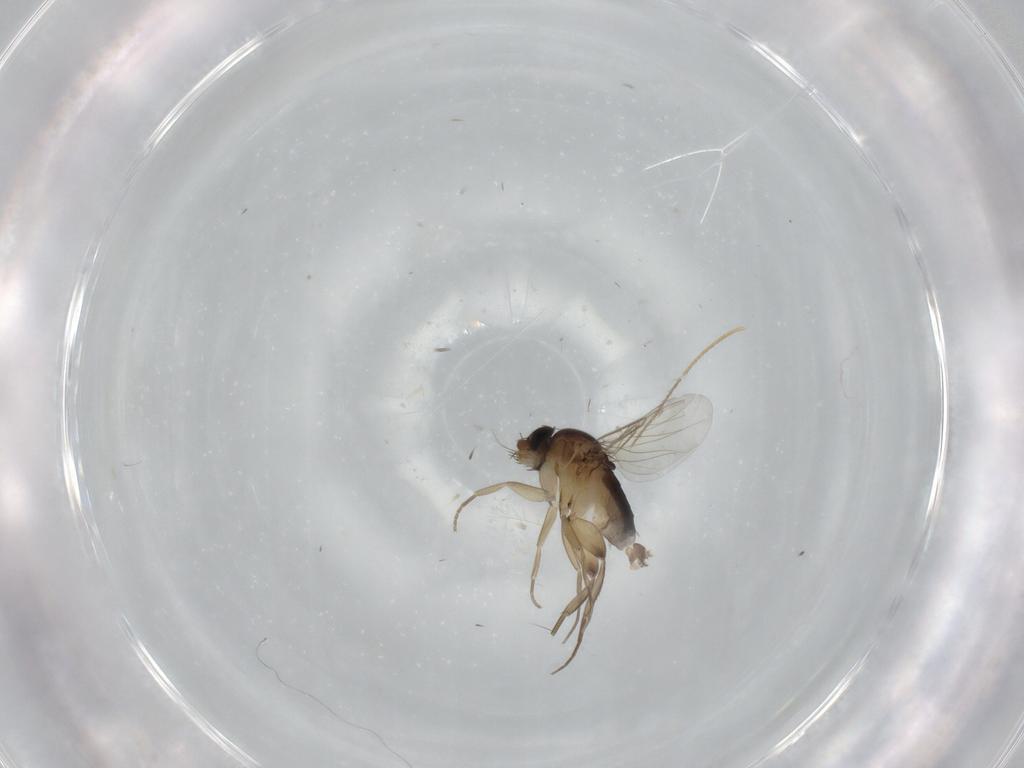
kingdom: Animalia
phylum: Arthropoda
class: Insecta
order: Diptera
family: Phoridae
